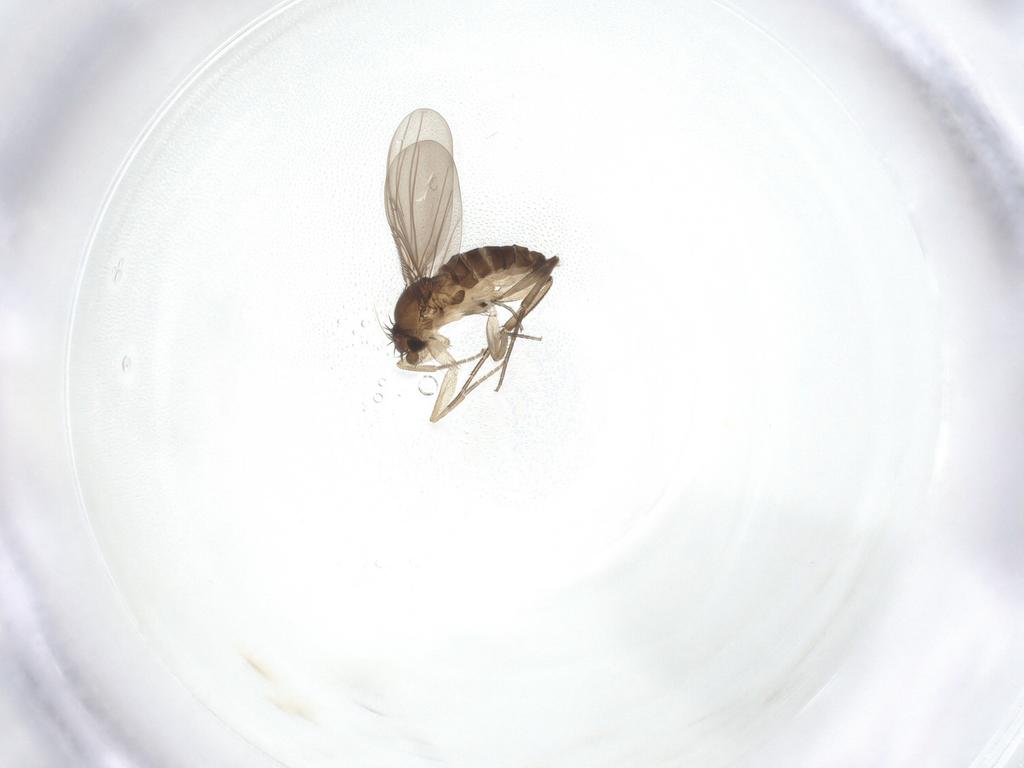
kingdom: Animalia
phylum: Arthropoda
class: Insecta
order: Diptera
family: Phoridae
